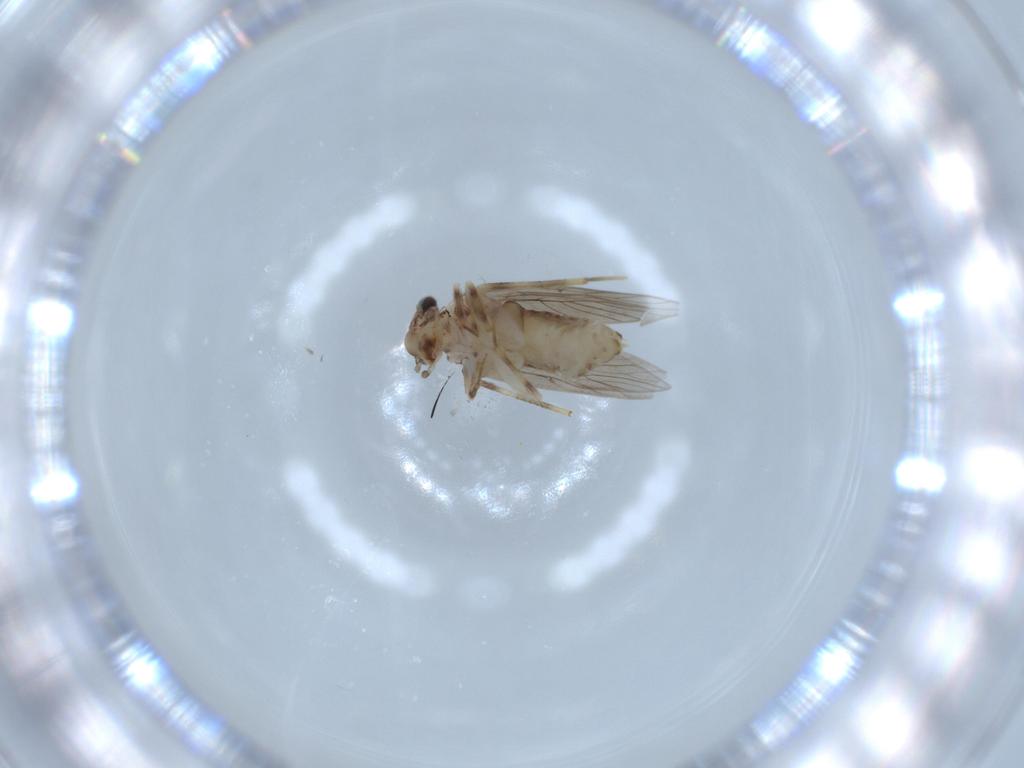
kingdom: Animalia
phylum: Arthropoda
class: Insecta
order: Psocodea
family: Lepidopsocidae
